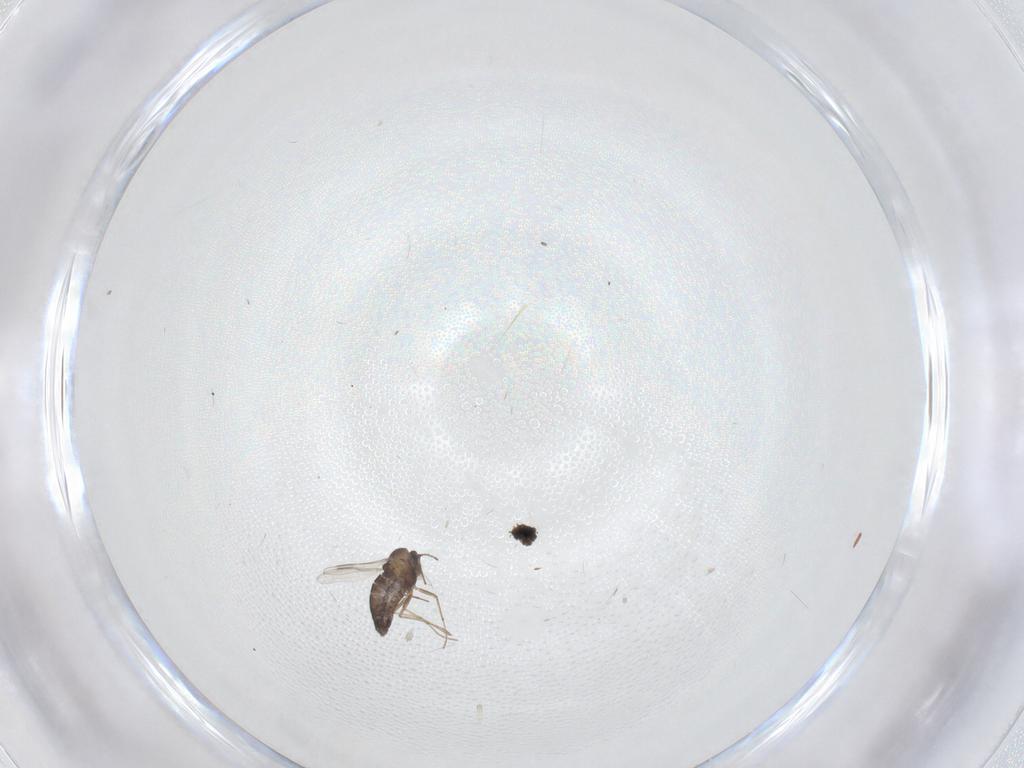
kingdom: Animalia
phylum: Arthropoda
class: Insecta
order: Diptera
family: Chironomidae
